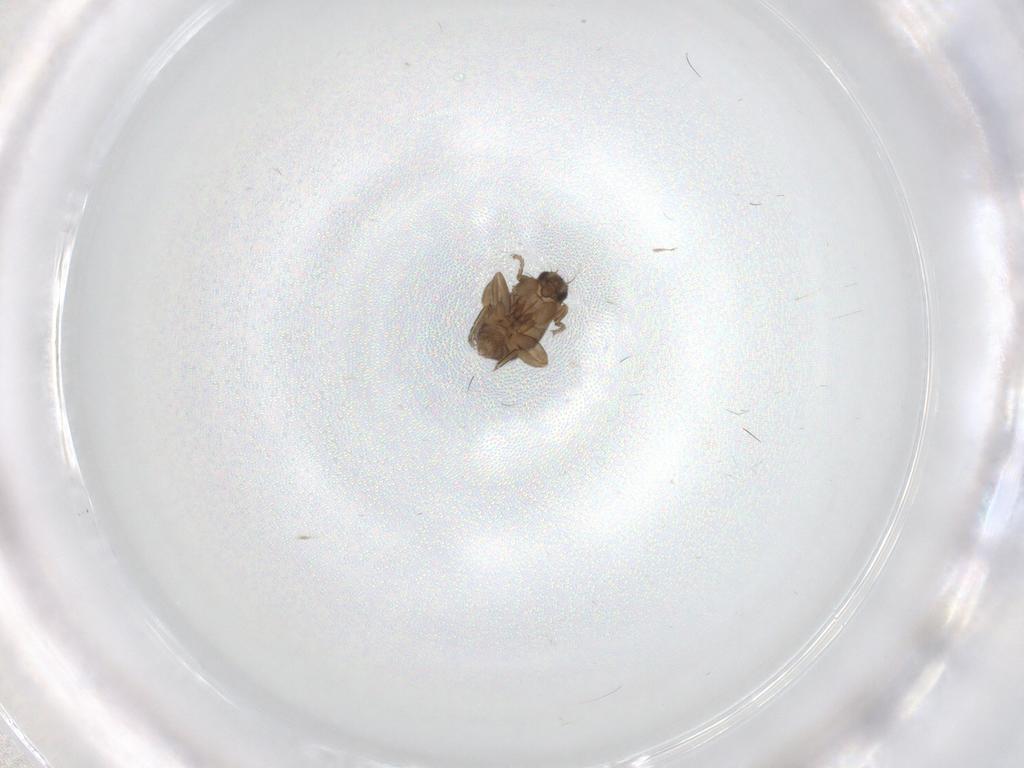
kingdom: Animalia
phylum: Arthropoda
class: Insecta
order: Diptera
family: Phoridae
